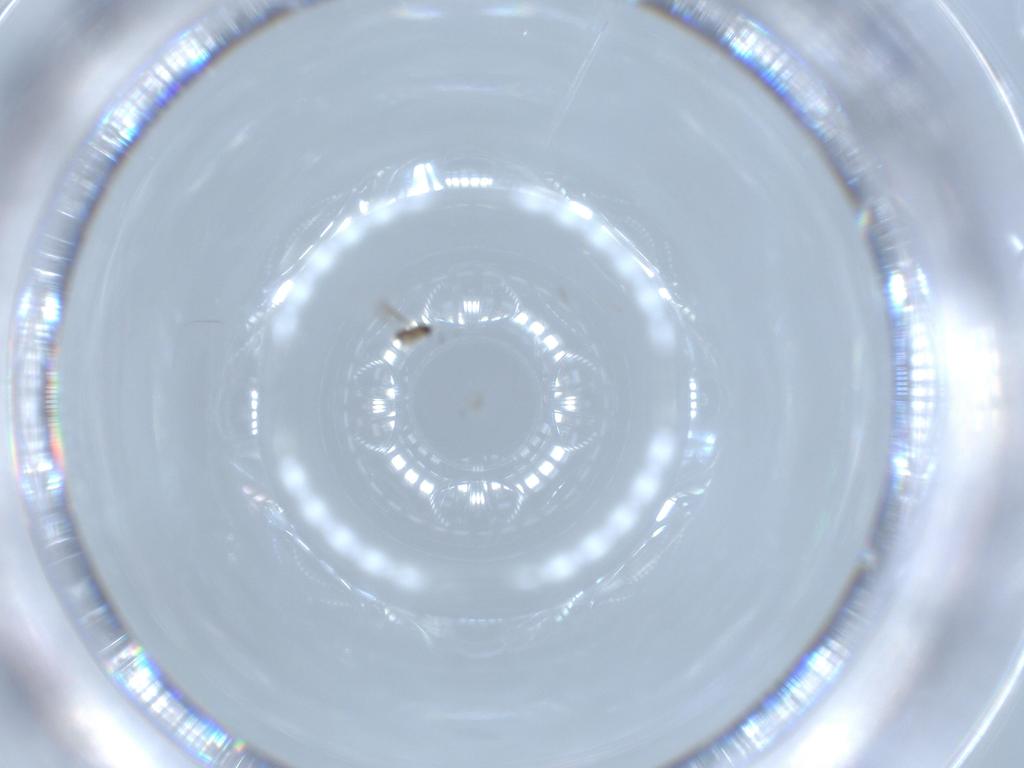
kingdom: Animalia
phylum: Arthropoda
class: Insecta
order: Hymenoptera
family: Mymaridae
